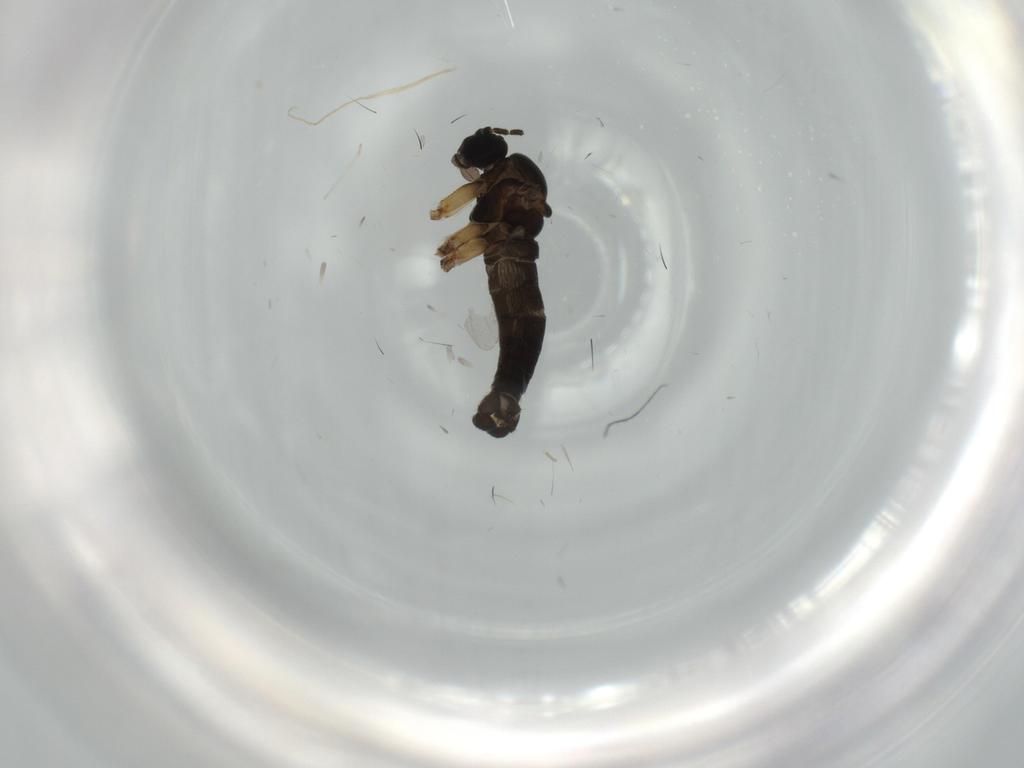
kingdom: Animalia
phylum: Arthropoda
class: Insecta
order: Diptera
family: Sciaridae
